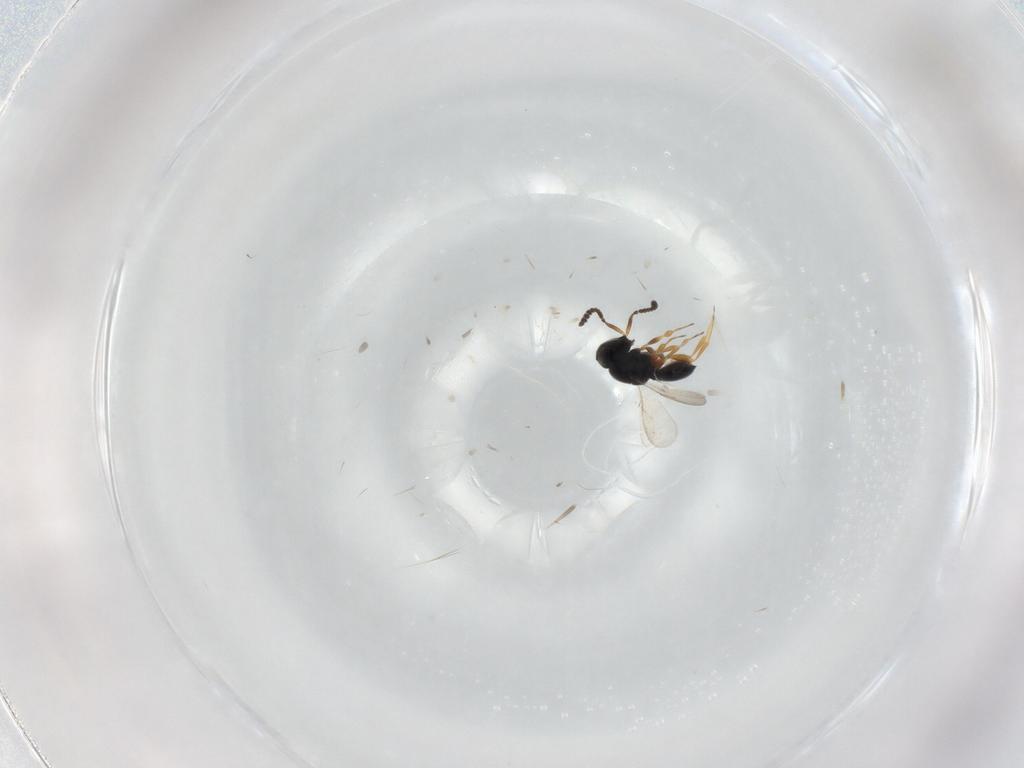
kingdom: Animalia
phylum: Arthropoda
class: Insecta
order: Hymenoptera
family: Scelionidae
